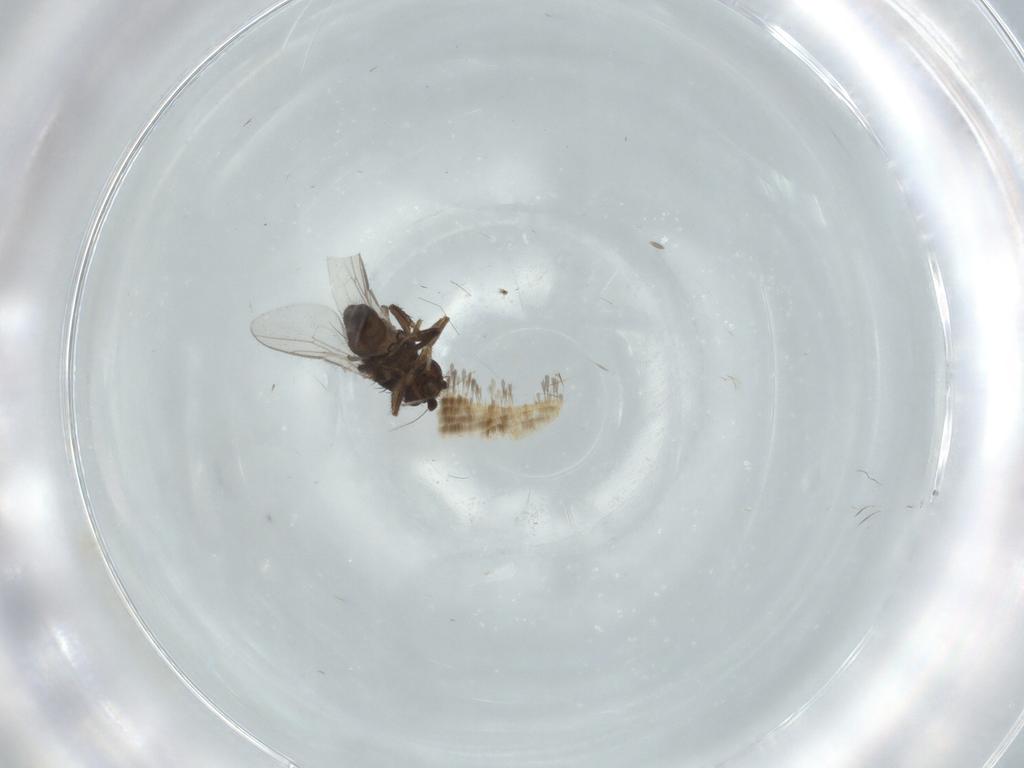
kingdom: Animalia
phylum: Arthropoda
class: Insecta
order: Diptera
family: Sphaeroceridae
